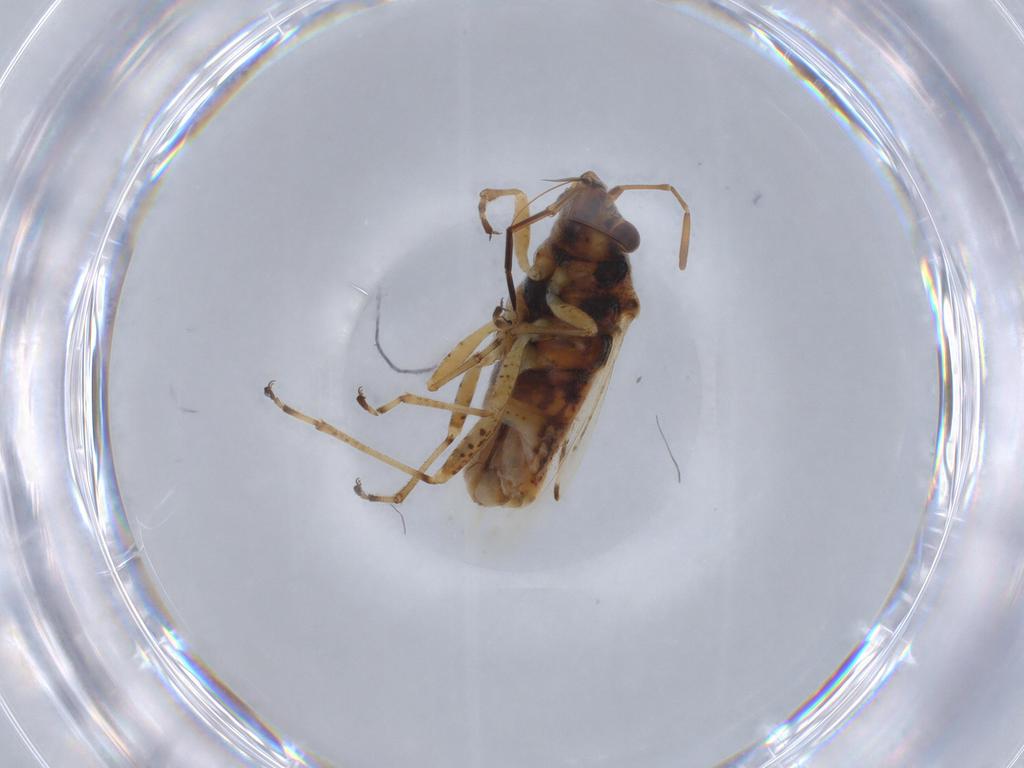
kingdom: Animalia
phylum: Arthropoda
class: Insecta
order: Hemiptera
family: Lygaeidae
